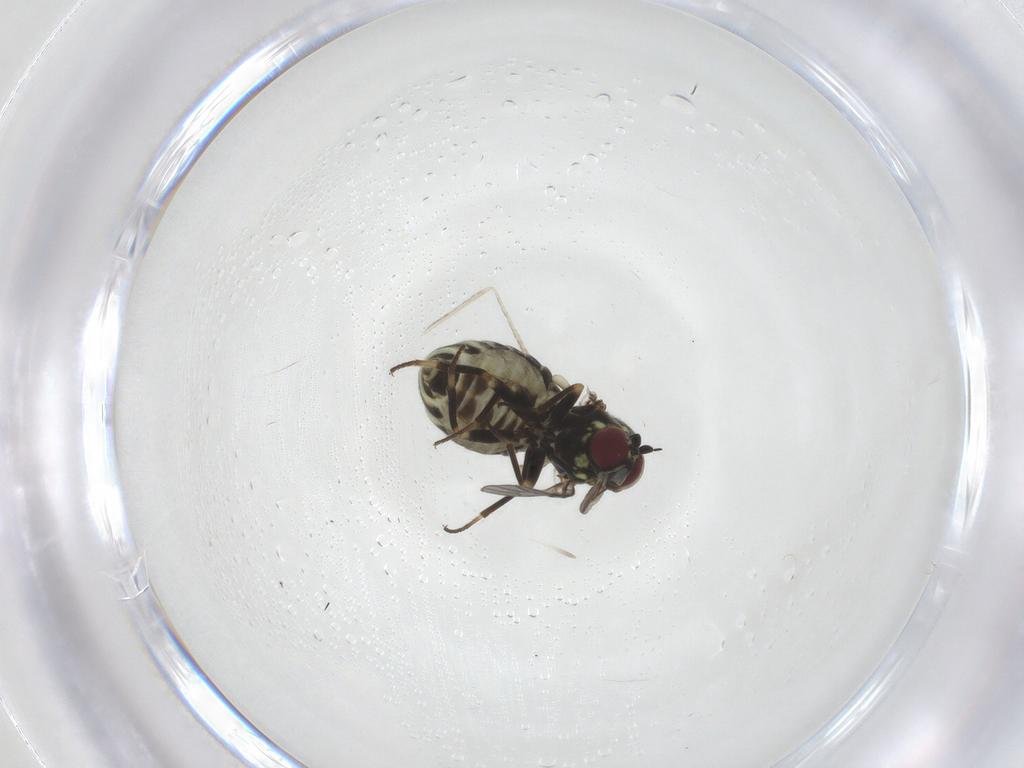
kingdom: Animalia
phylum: Arthropoda
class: Insecta
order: Diptera
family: Mythicomyiidae
